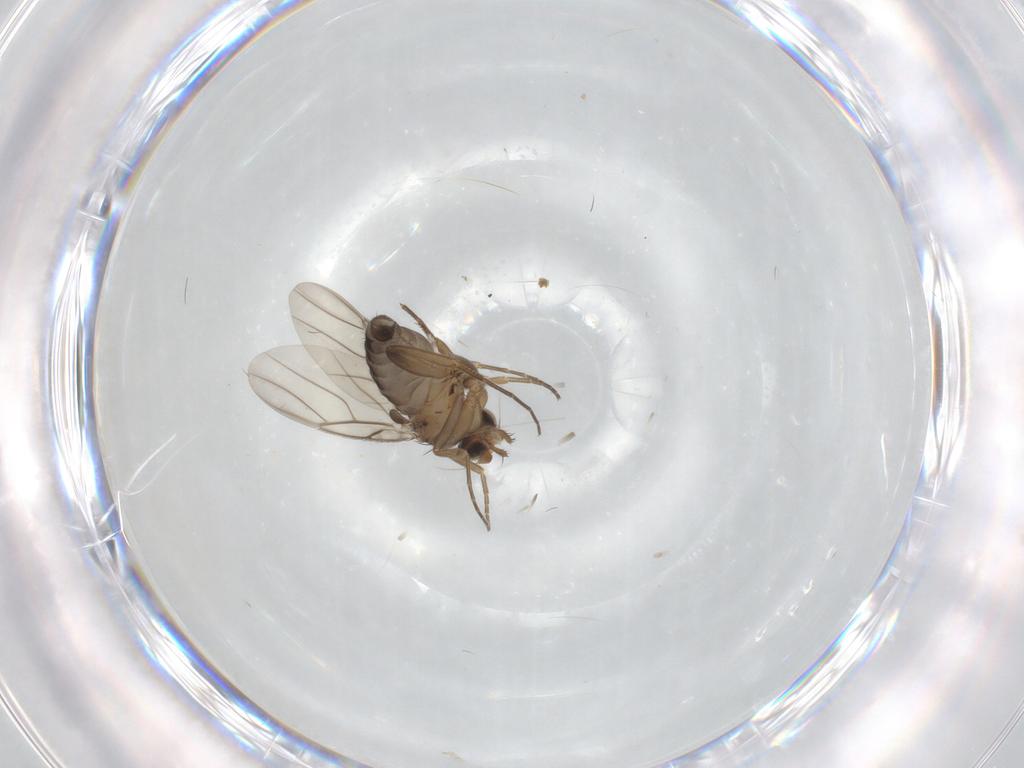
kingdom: Animalia
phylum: Arthropoda
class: Insecta
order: Diptera
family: Phoridae
